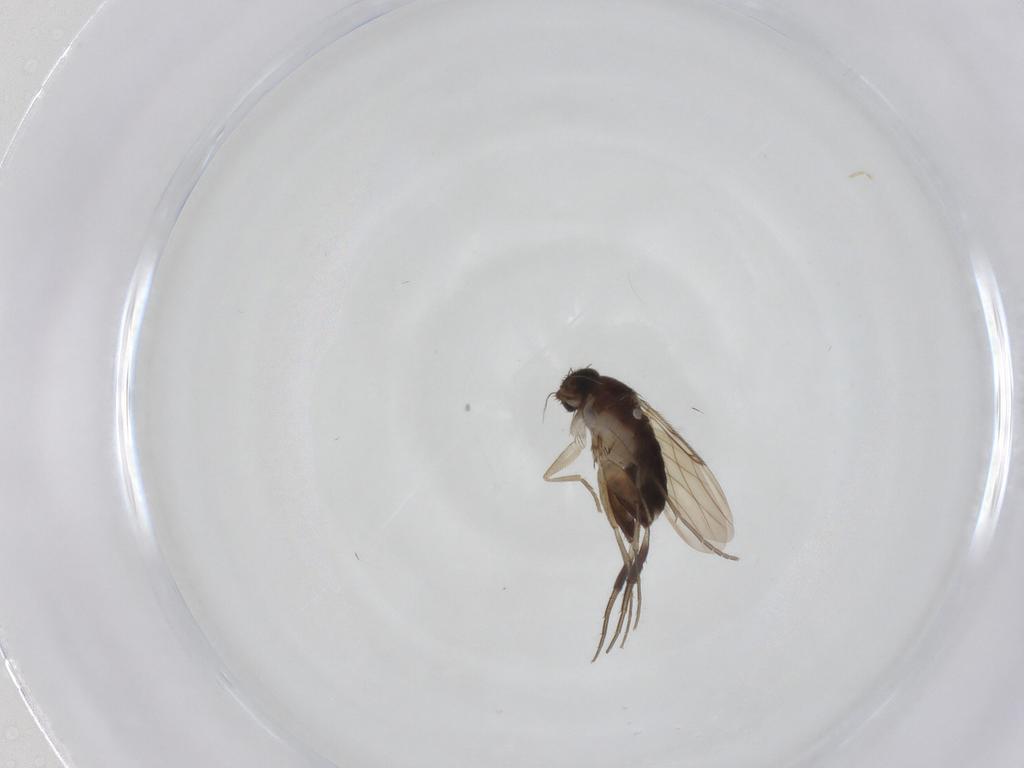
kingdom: Animalia
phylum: Arthropoda
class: Insecta
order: Diptera
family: Phoridae
